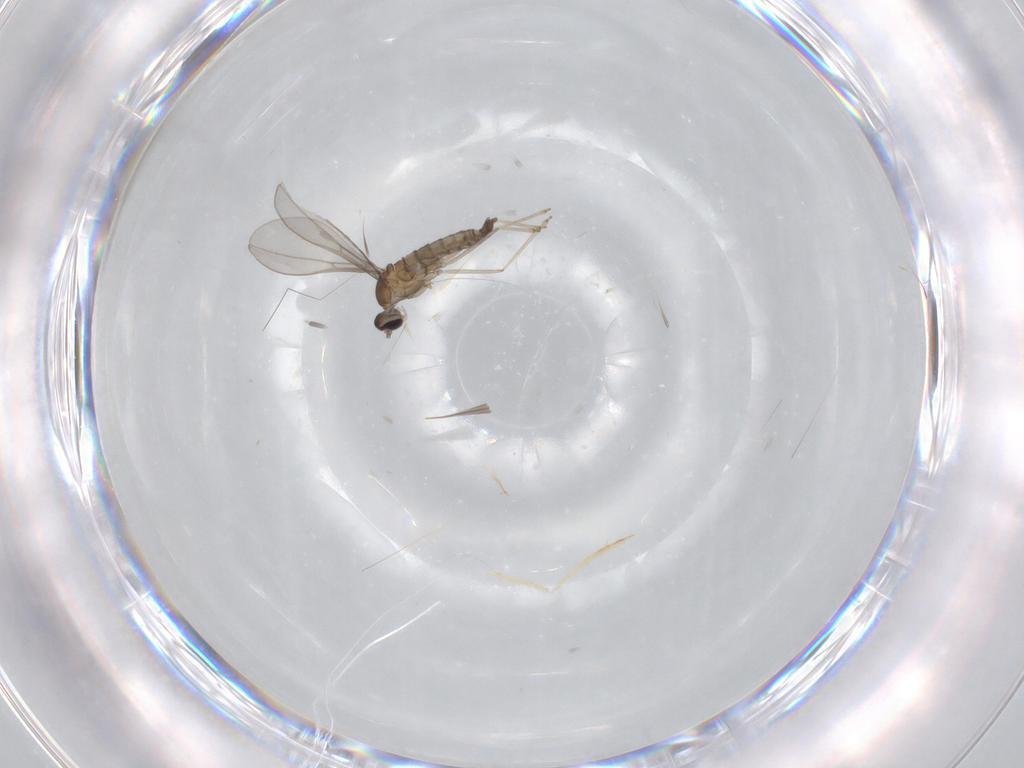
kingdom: Animalia
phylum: Arthropoda
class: Insecta
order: Diptera
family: Cecidomyiidae
